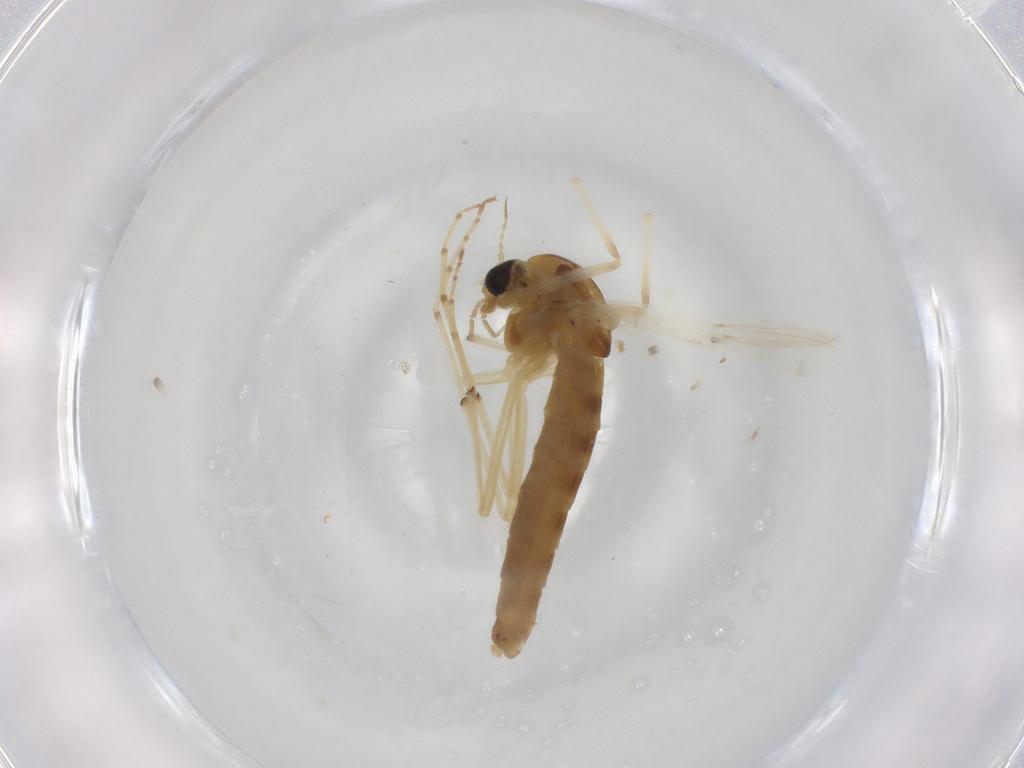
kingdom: Animalia
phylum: Arthropoda
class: Insecta
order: Diptera
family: Chironomidae
